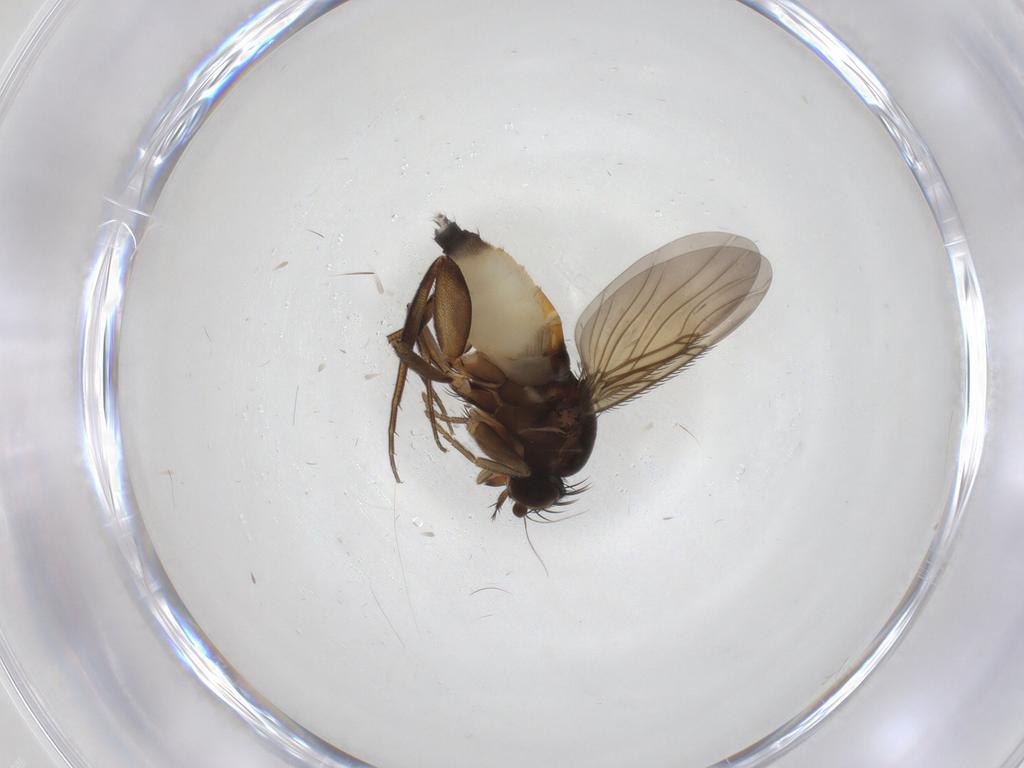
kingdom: Animalia
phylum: Arthropoda
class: Insecta
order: Diptera
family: Phoridae
